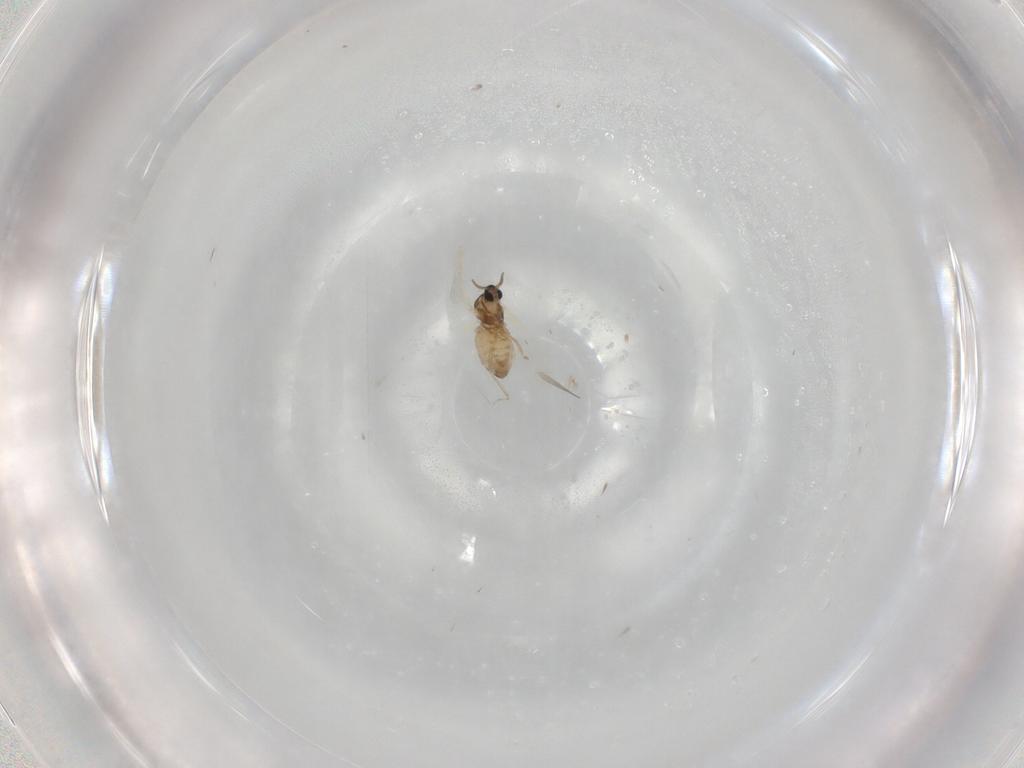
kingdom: Animalia
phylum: Arthropoda
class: Insecta
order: Diptera
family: Cecidomyiidae
